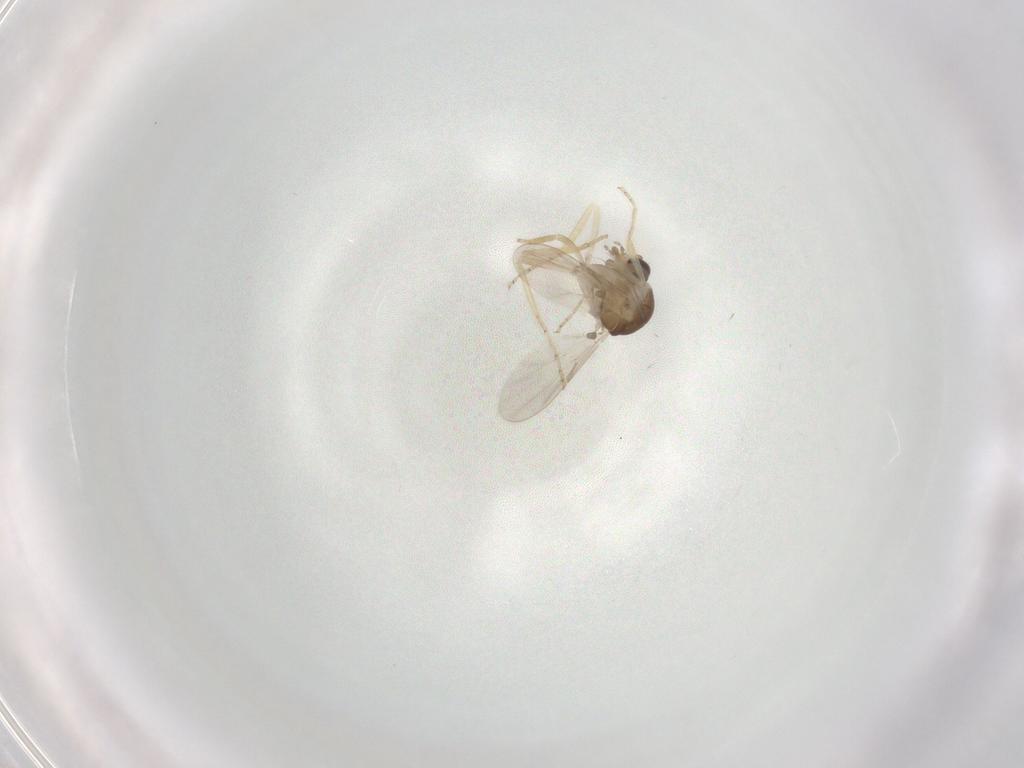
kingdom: Animalia
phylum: Arthropoda
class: Insecta
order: Diptera
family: Ceratopogonidae
